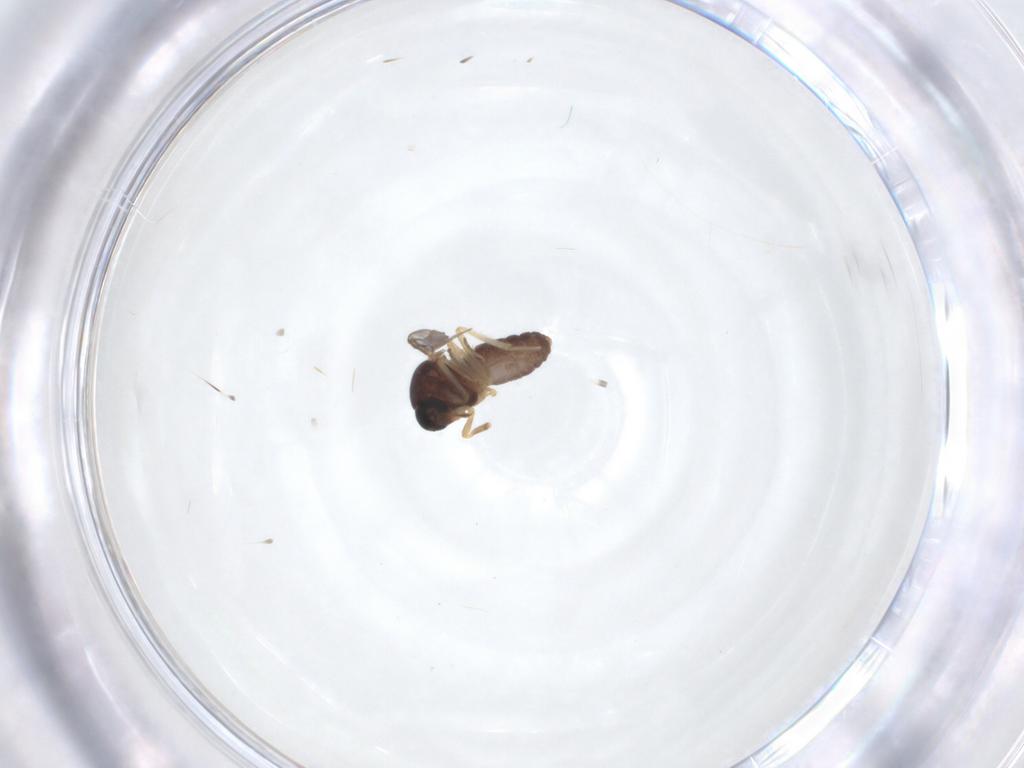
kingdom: Animalia
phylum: Arthropoda
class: Insecta
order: Diptera
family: Ceratopogonidae
